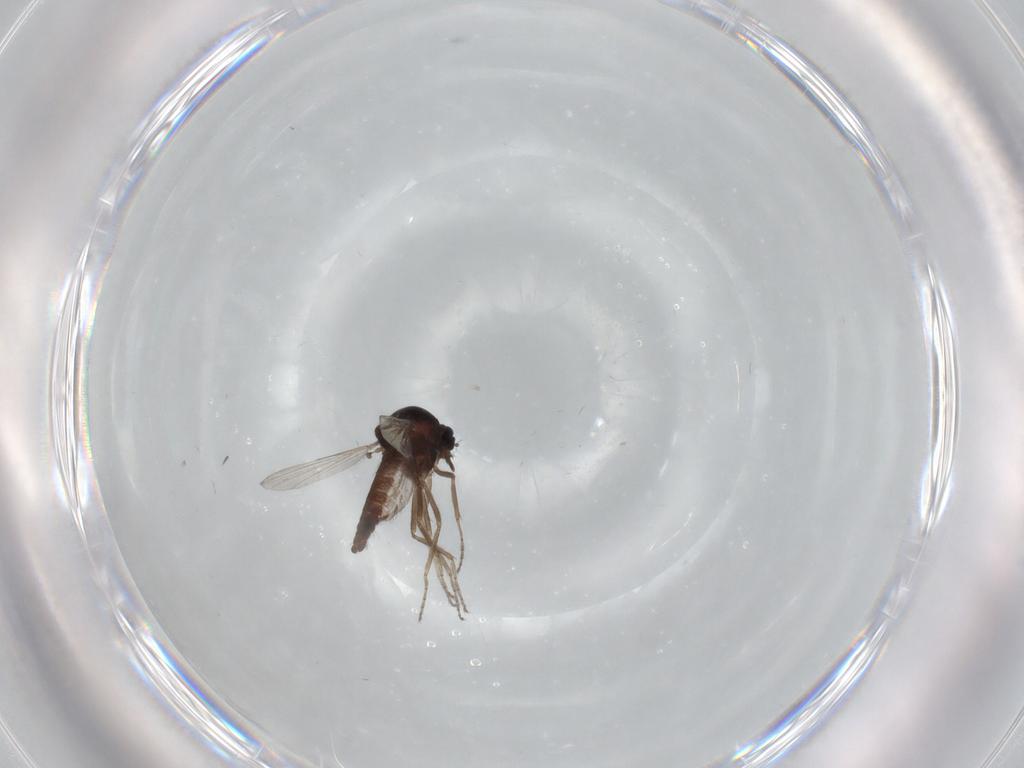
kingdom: Animalia
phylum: Arthropoda
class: Insecta
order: Diptera
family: Ceratopogonidae
